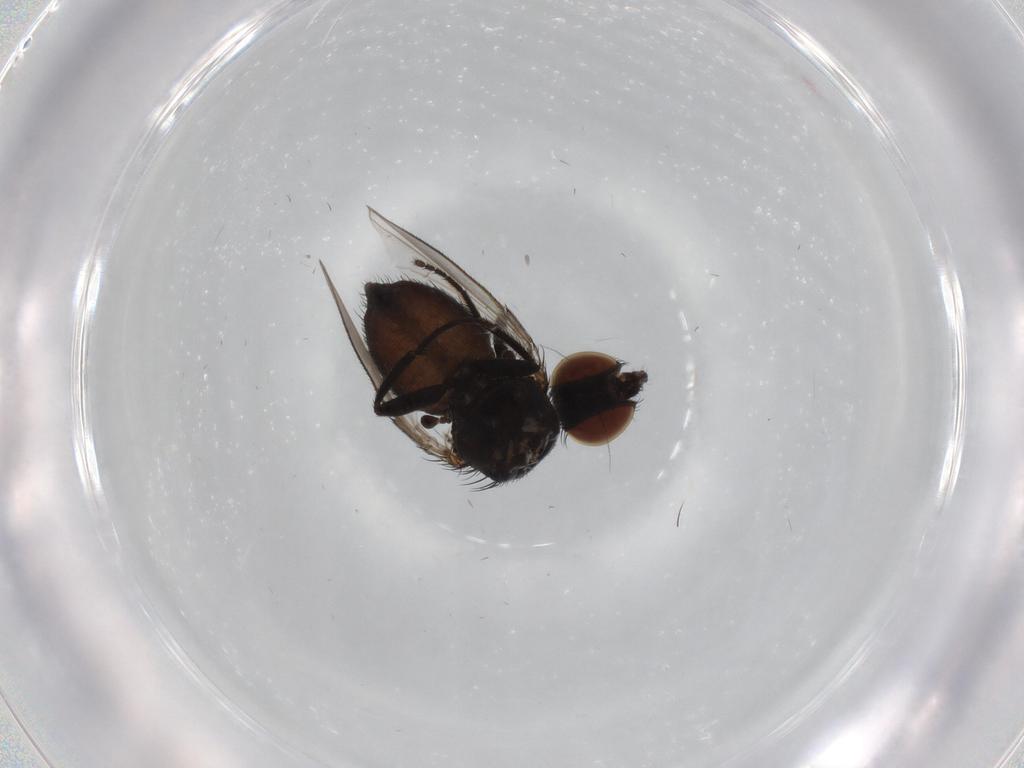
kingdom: Animalia
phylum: Arthropoda
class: Insecta
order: Diptera
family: Milichiidae
